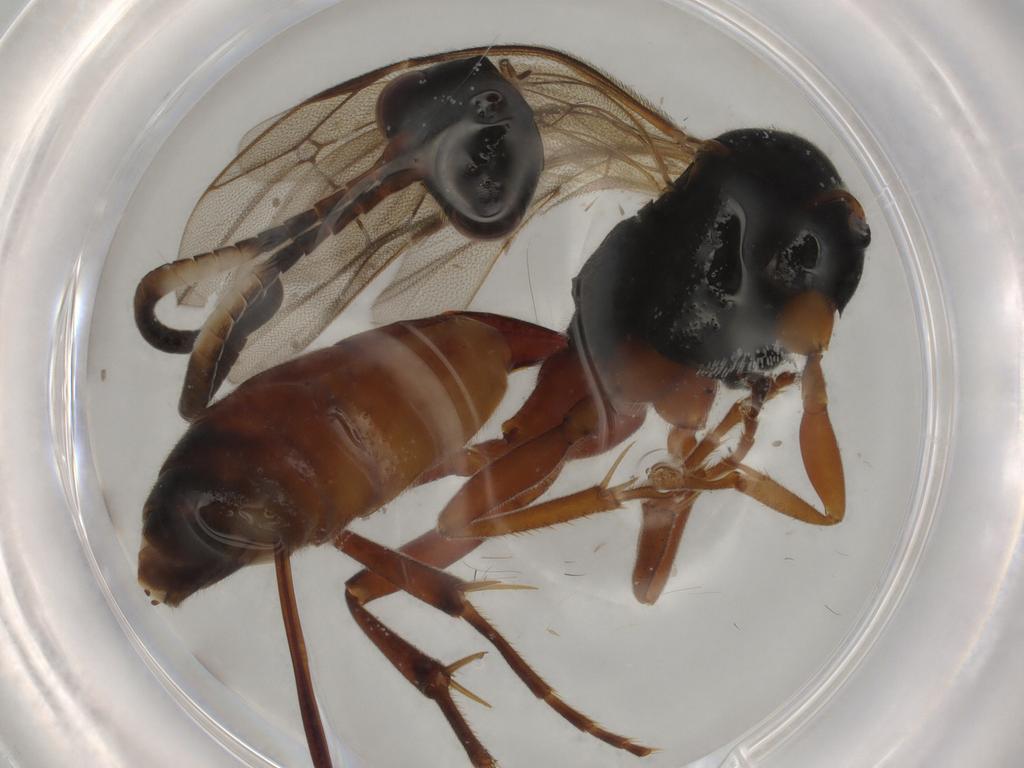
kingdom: Animalia
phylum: Arthropoda
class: Insecta
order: Hymenoptera
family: Ichneumonidae
